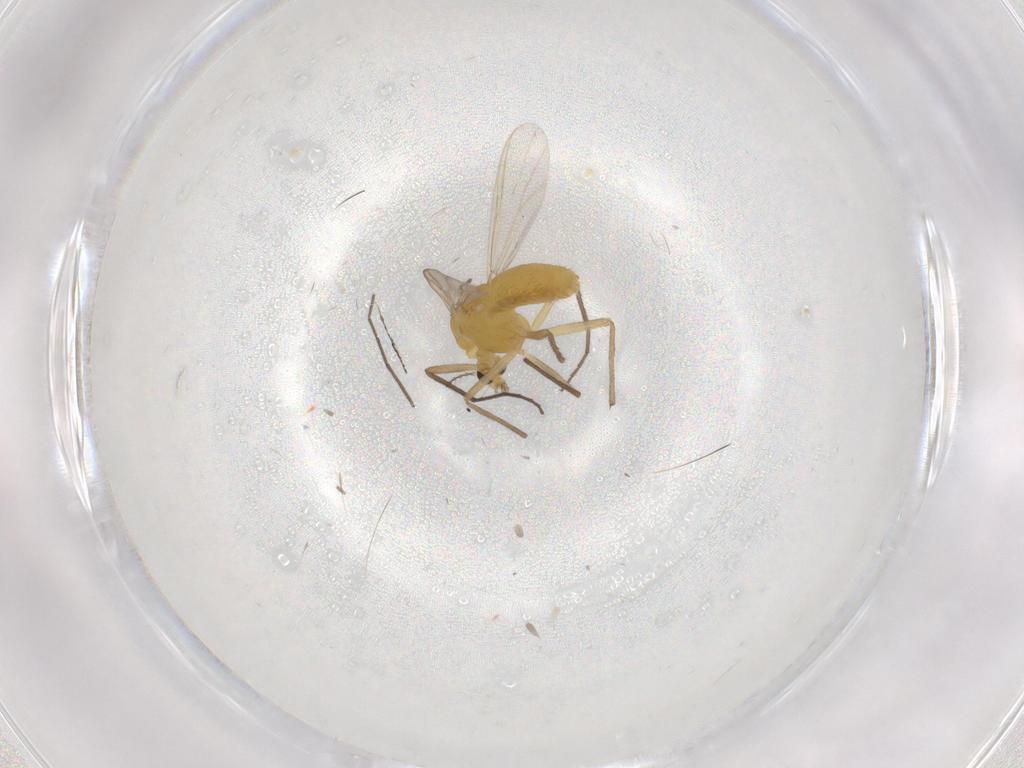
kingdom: Animalia
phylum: Arthropoda
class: Insecta
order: Diptera
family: Chironomidae
